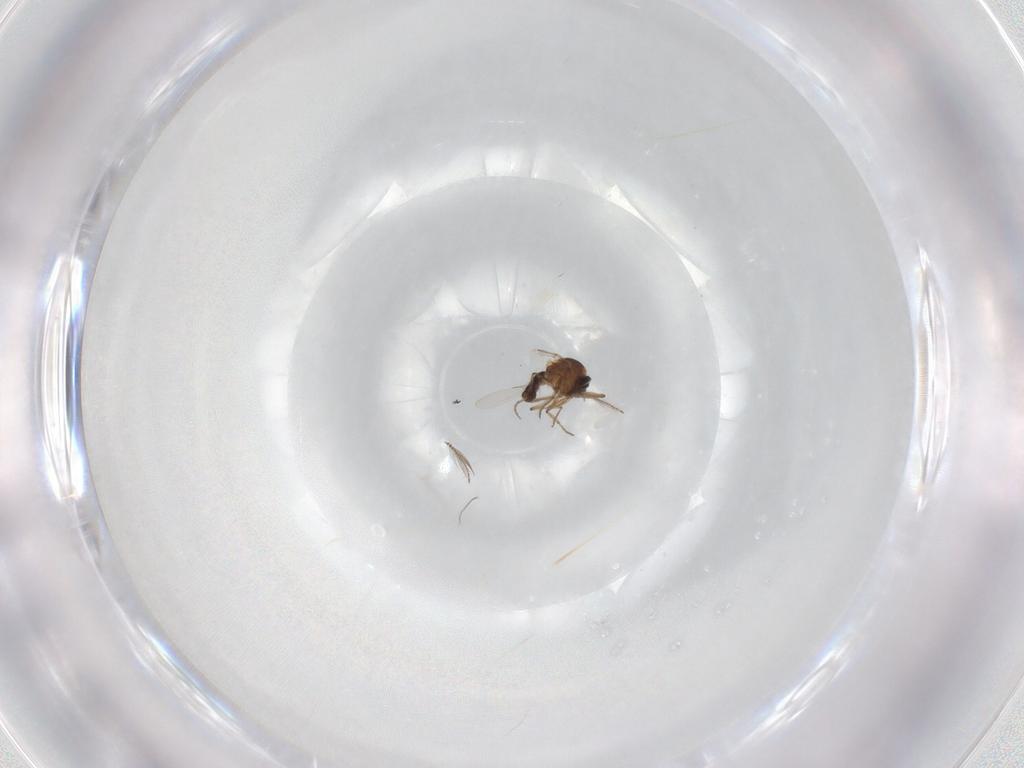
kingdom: Animalia
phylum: Arthropoda
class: Insecta
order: Diptera
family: Ceratopogonidae
